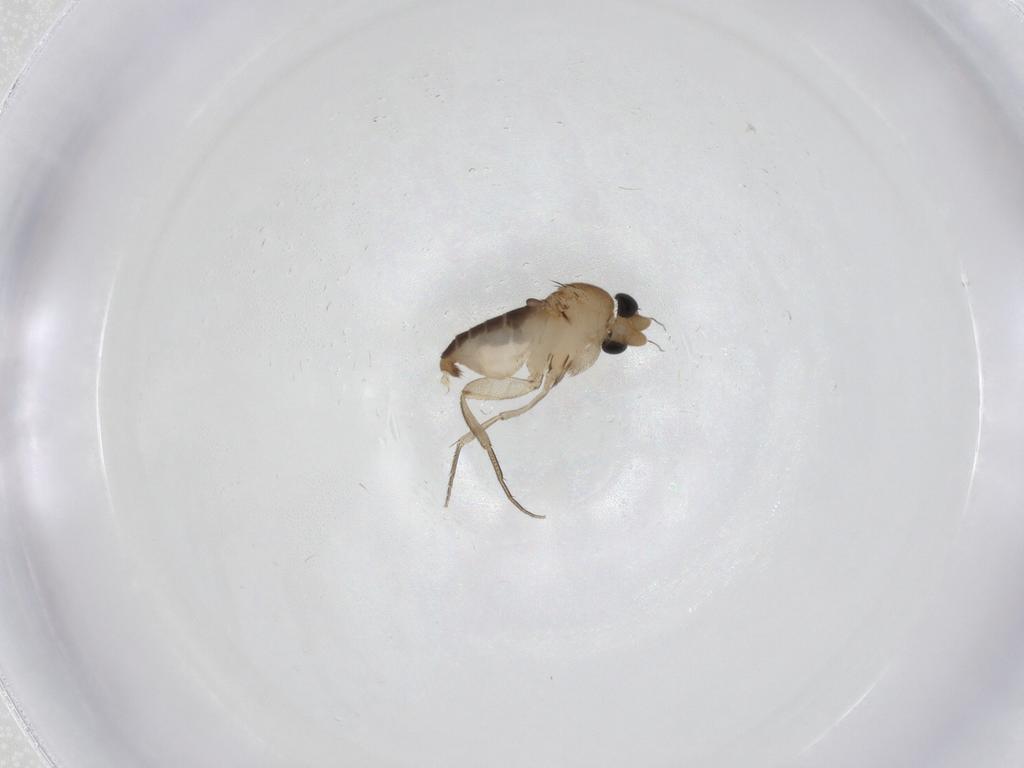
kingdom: Animalia
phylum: Arthropoda
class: Insecta
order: Diptera
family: Phoridae
